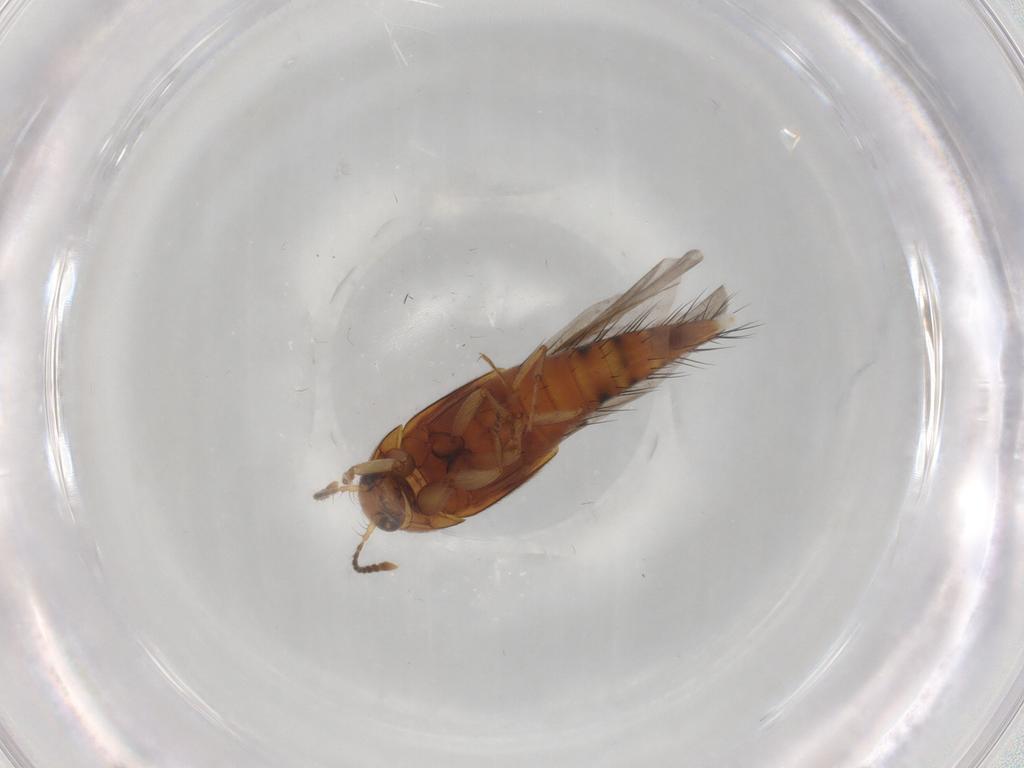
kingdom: Animalia
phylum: Arthropoda
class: Insecta
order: Coleoptera
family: Staphylinidae
